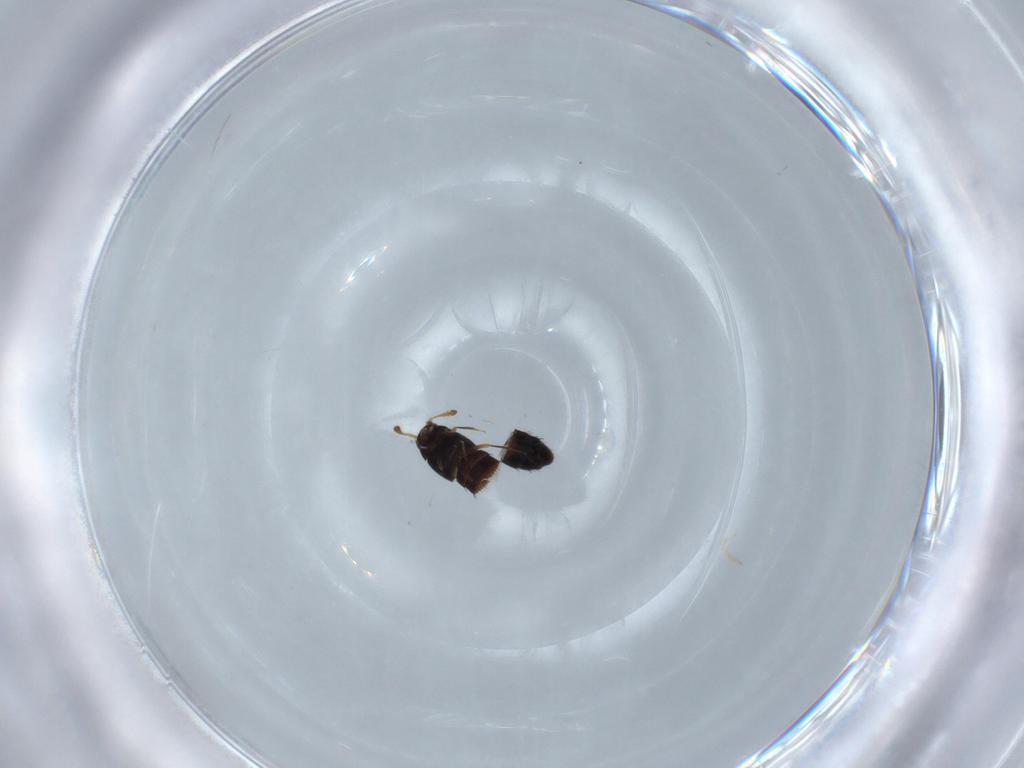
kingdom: Animalia
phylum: Arthropoda
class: Insecta
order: Coleoptera
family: Staphylinidae
